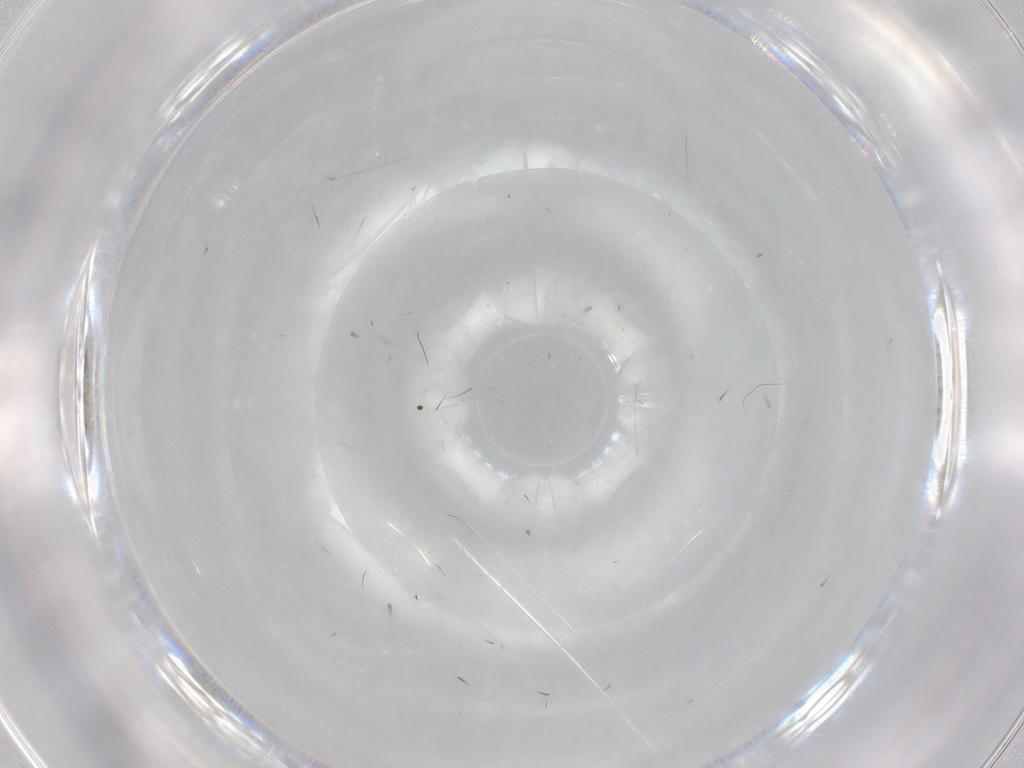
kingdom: Animalia
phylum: Arthropoda
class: Insecta
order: Diptera
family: Cecidomyiidae
